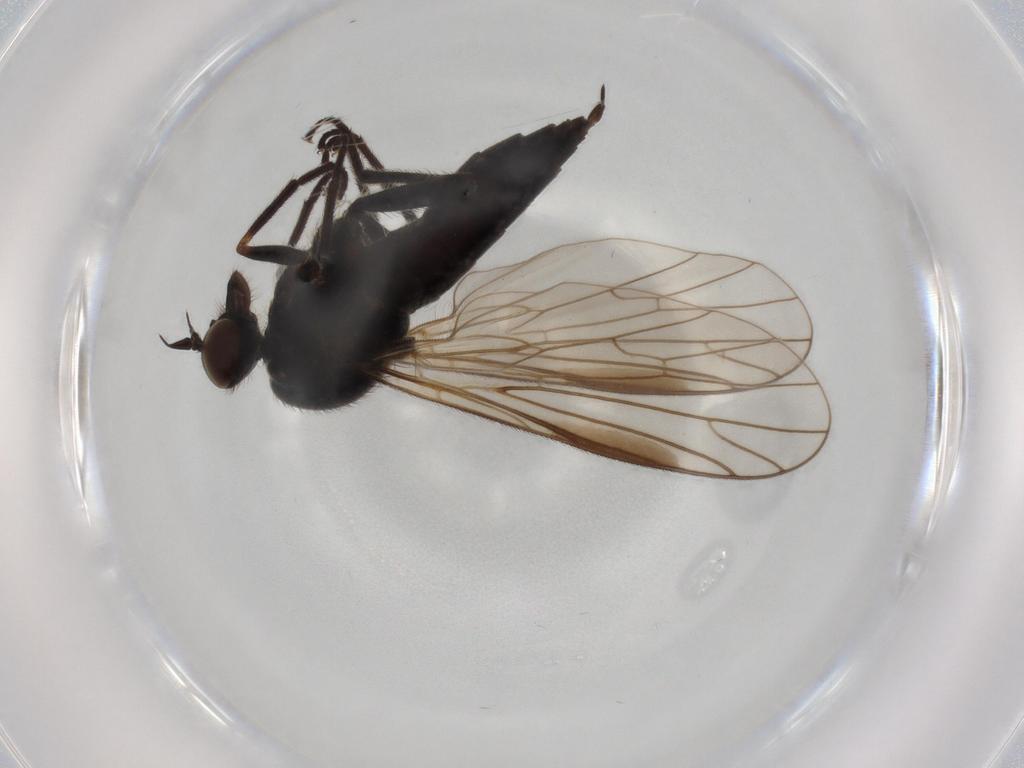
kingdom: Animalia
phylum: Arthropoda
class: Insecta
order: Diptera
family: Empididae
